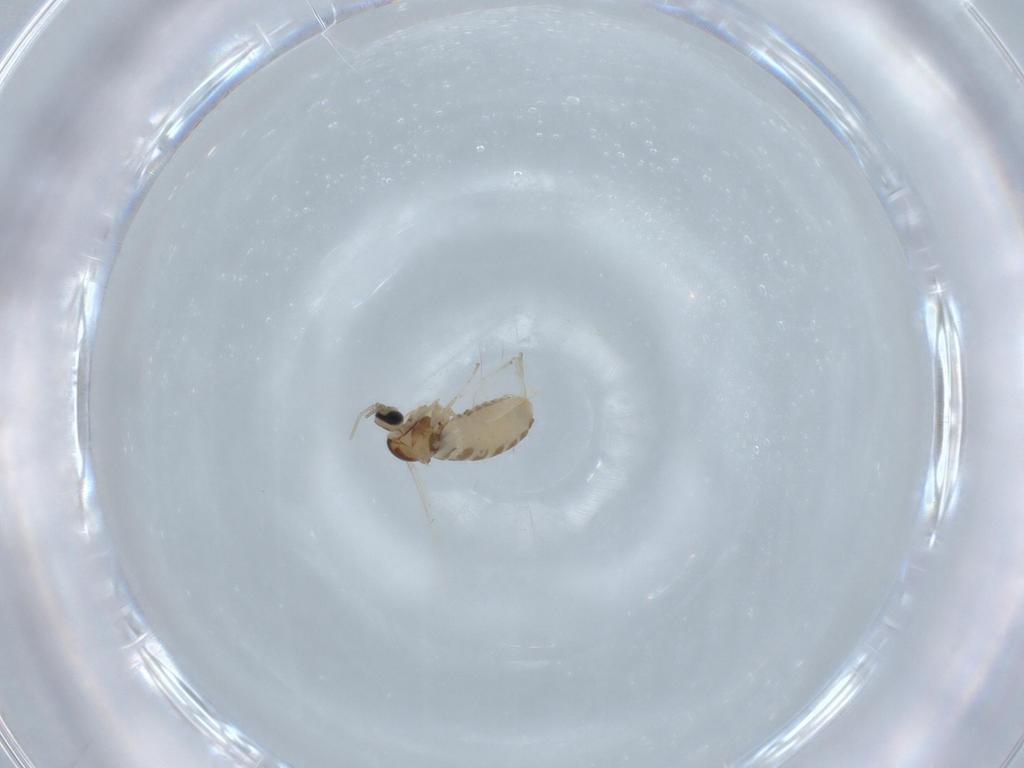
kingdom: Animalia
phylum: Arthropoda
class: Insecta
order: Diptera
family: Cecidomyiidae
